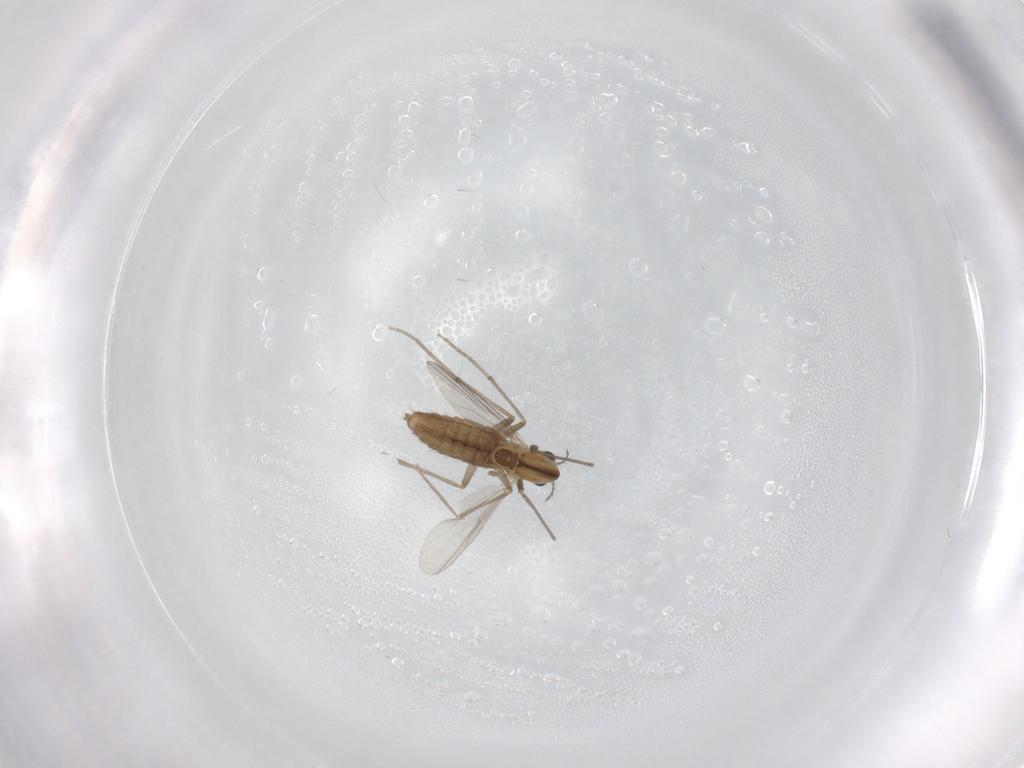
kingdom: Animalia
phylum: Arthropoda
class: Insecta
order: Diptera
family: Chironomidae
